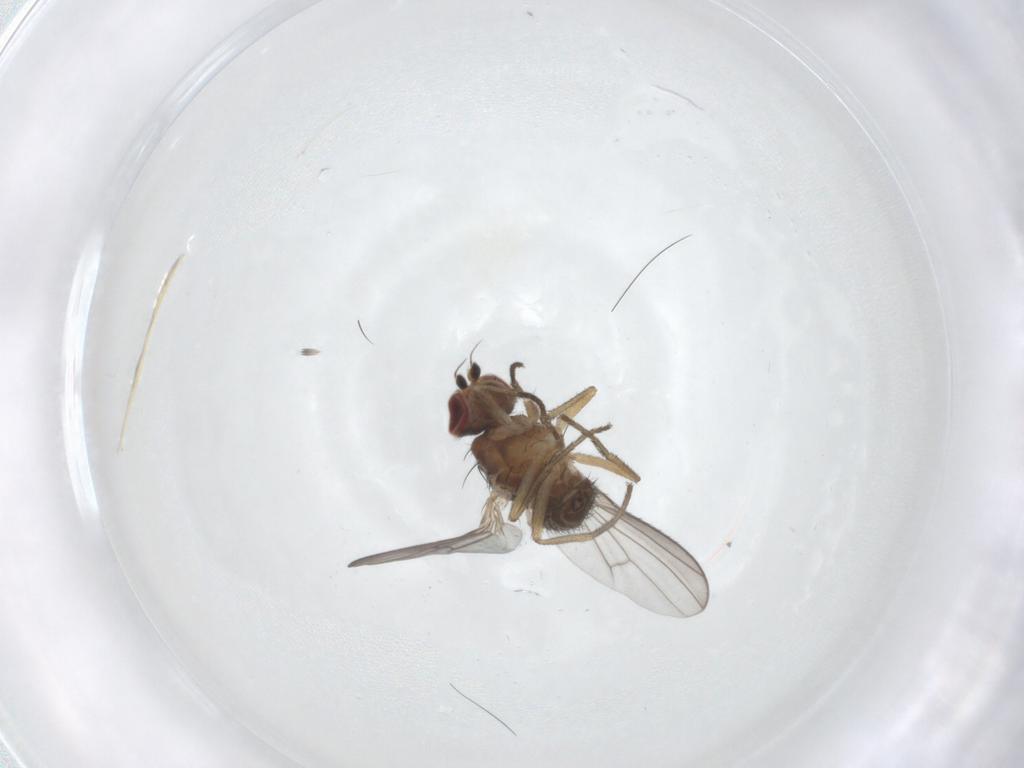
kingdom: Animalia
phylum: Arthropoda
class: Insecta
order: Diptera
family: Heleomyzidae
